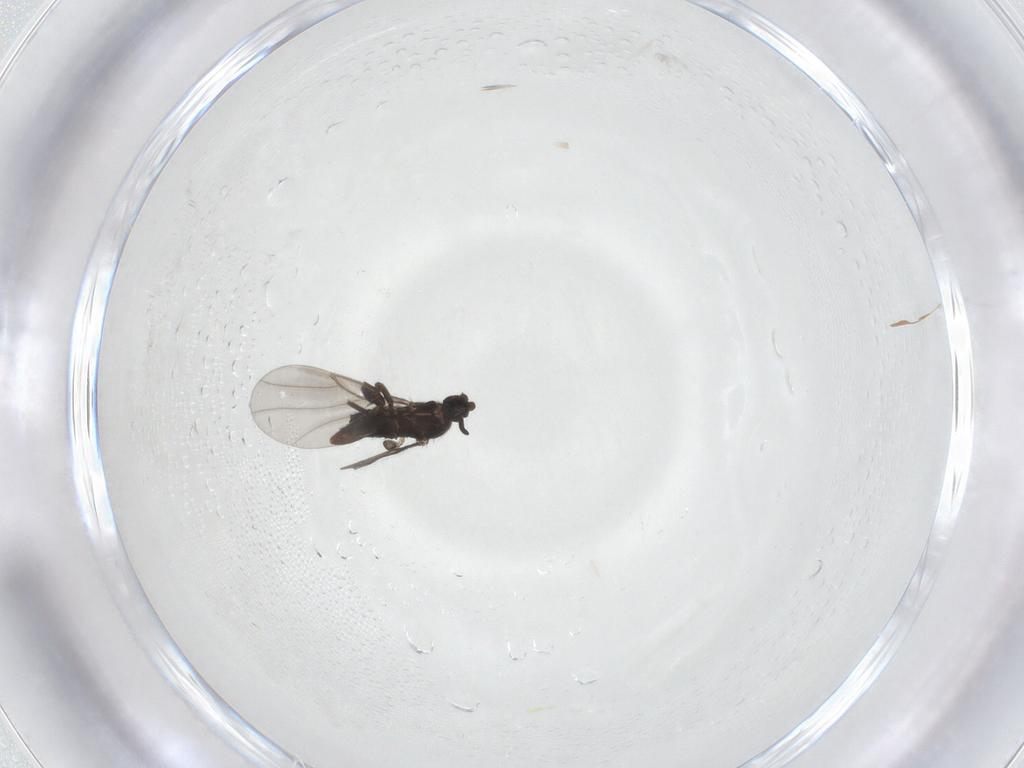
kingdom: Animalia
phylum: Arthropoda
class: Insecta
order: Diptera
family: Phoridae
